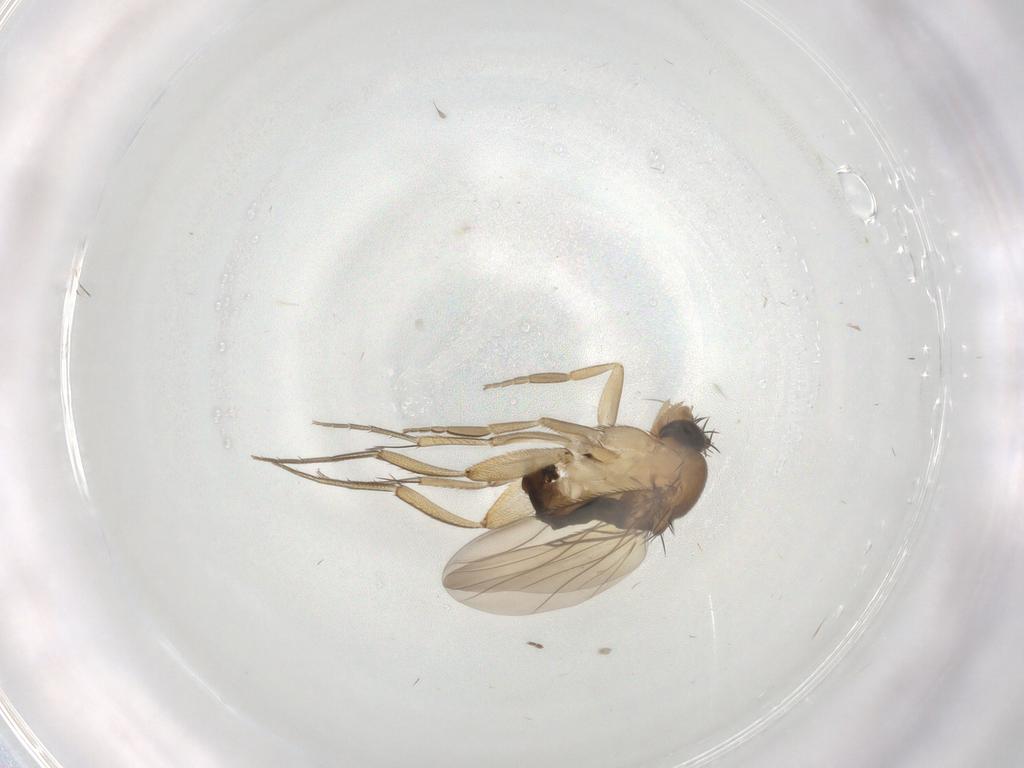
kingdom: Animalia
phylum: Arthropoda
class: Insecta
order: Diptera
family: Phoridae
